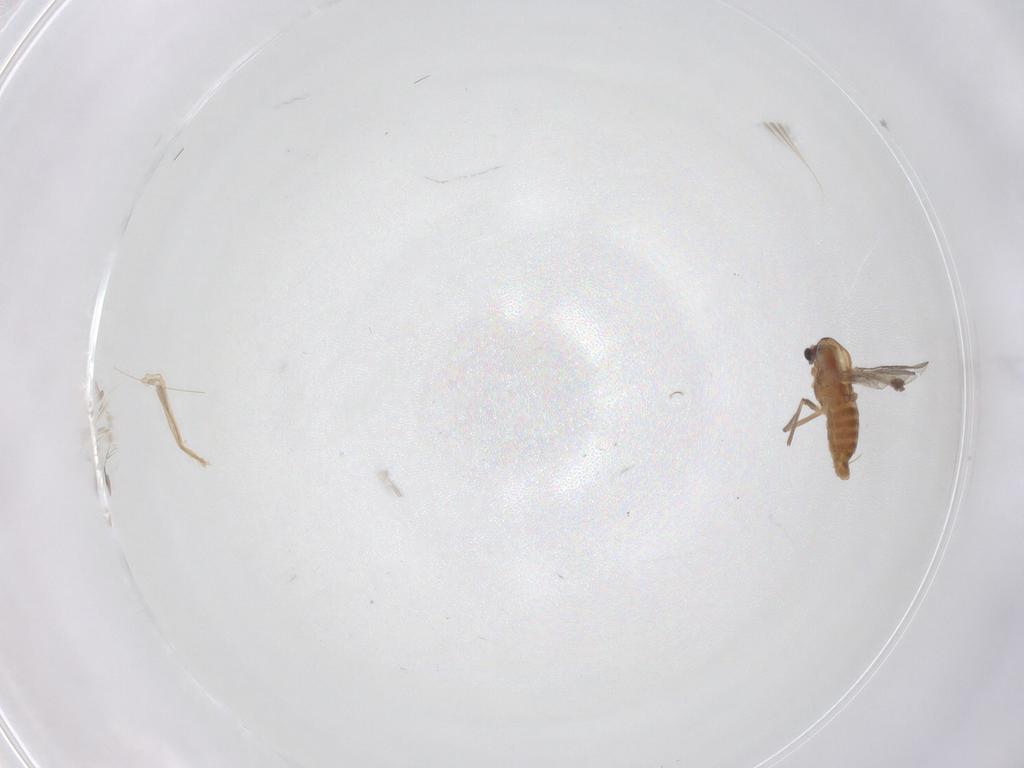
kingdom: Animalia
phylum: Arthropoda
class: Insecta
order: Diptera
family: Chironomidae
